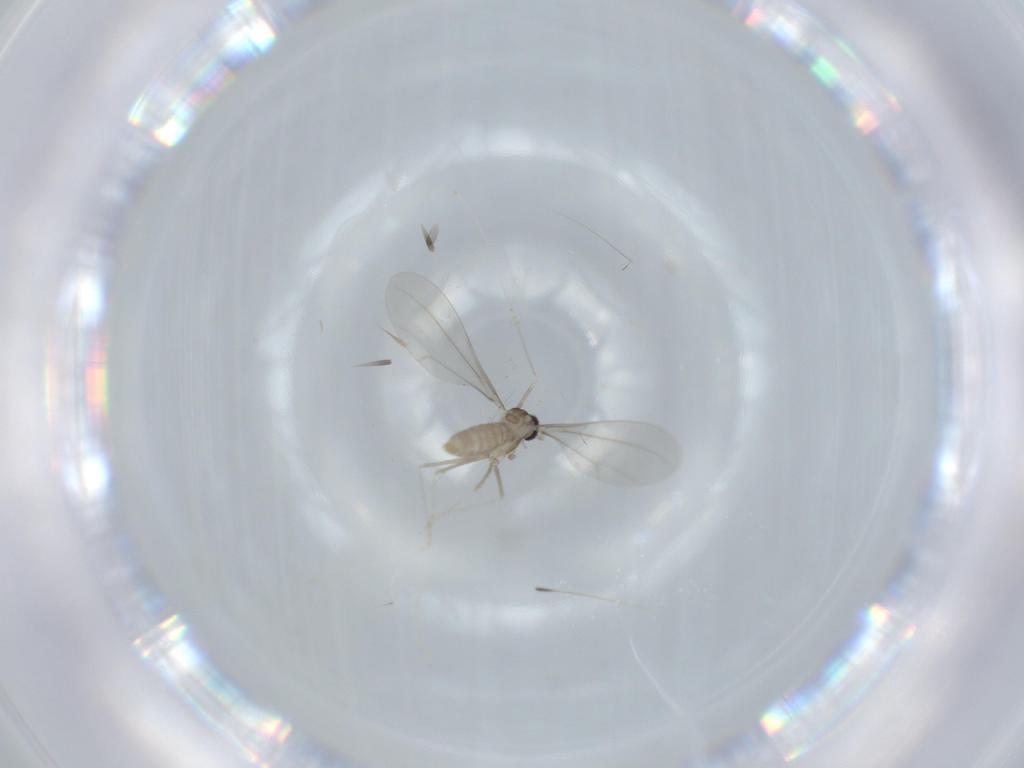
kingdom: Animalia
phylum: Arthropoda
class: Insecta
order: Diptera
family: Cecidomyiidae
